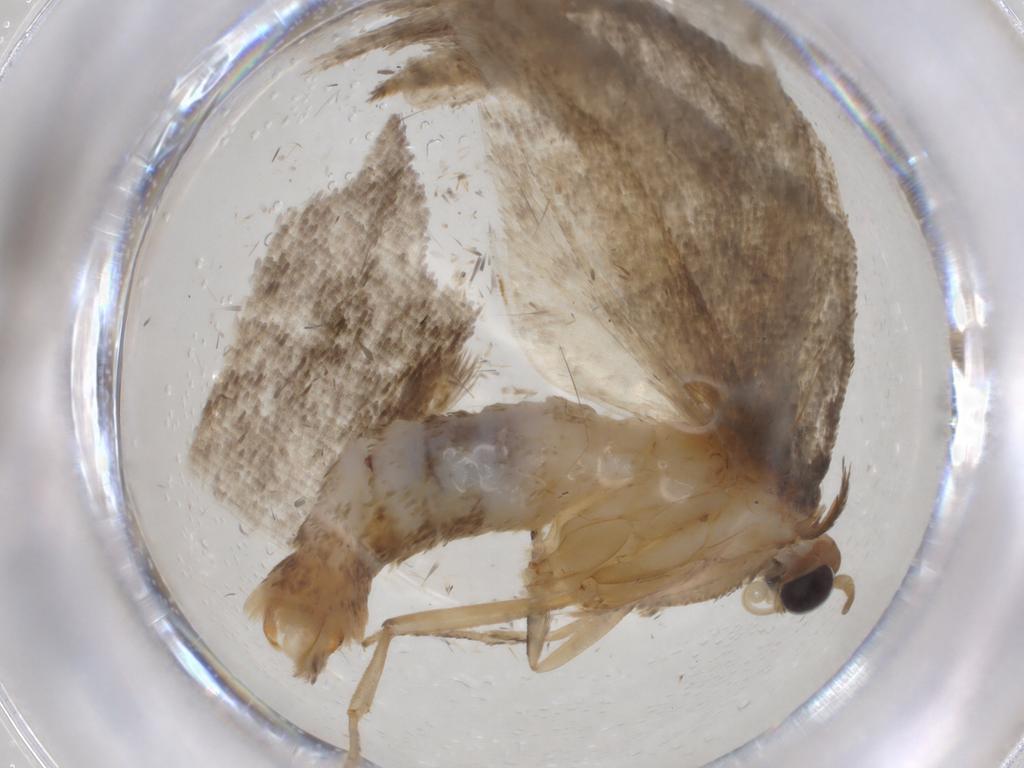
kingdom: Animalia
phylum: Arthropoda
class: Insecta
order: Lepidoptera
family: Tortricidae
